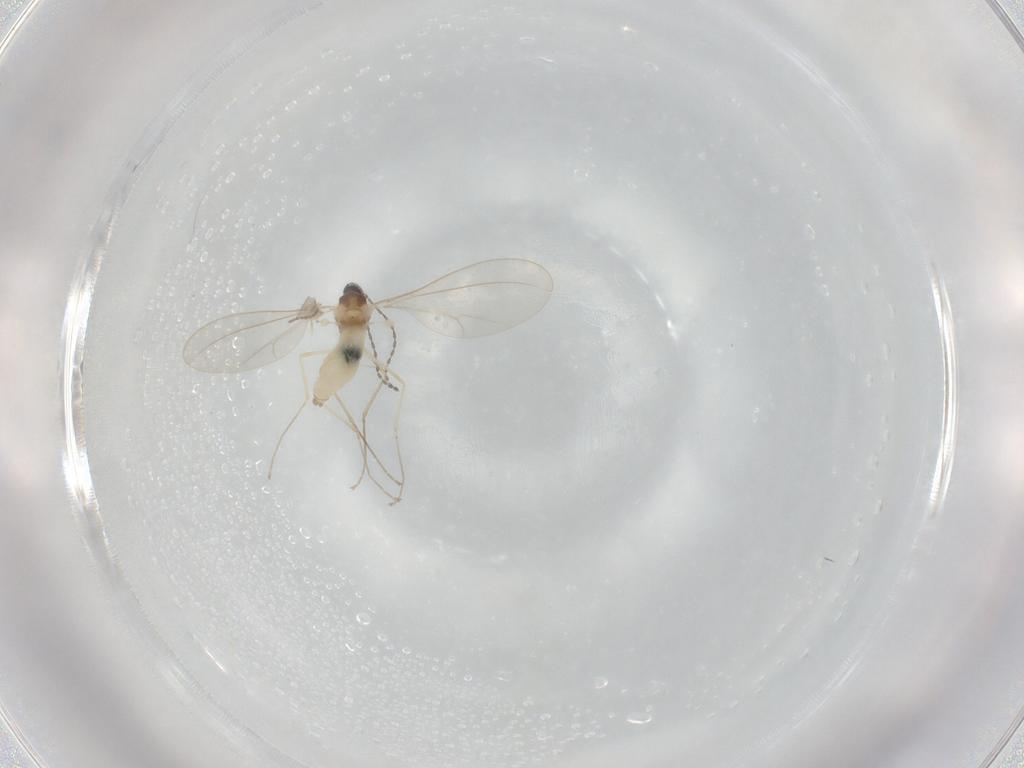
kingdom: Animalia
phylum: Arthropoda
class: Insecta
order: Diptera
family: Cecidomyiidae
